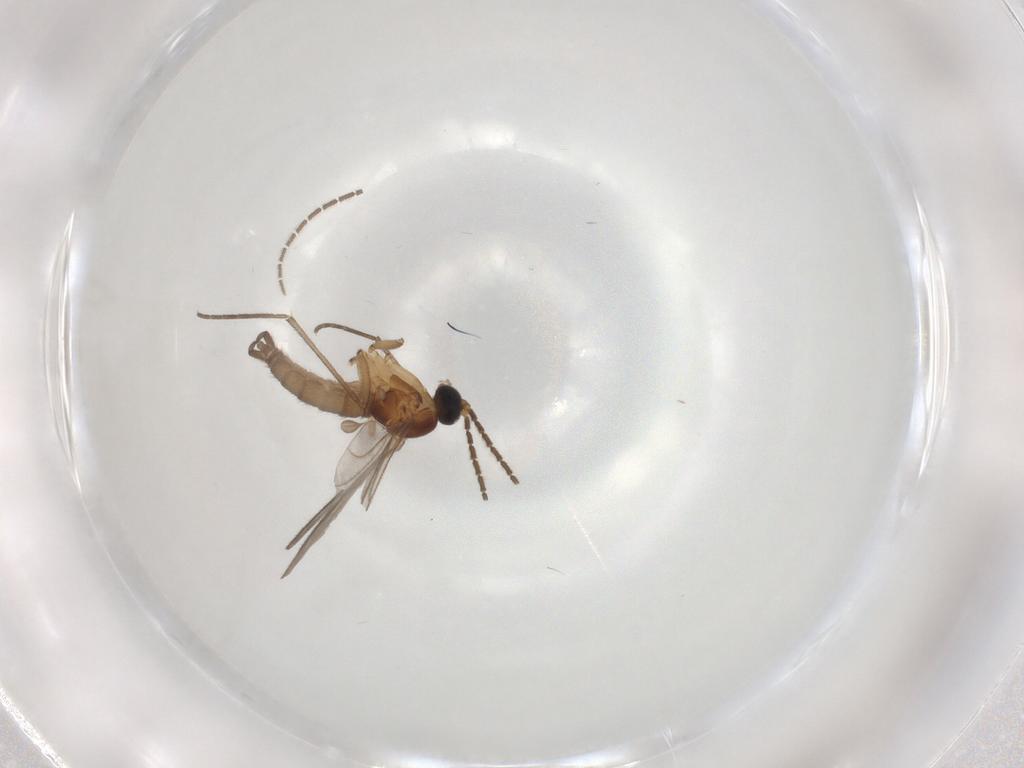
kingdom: Animalia
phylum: Arthropoda
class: Insecta
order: Diptera
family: Sciaridae
